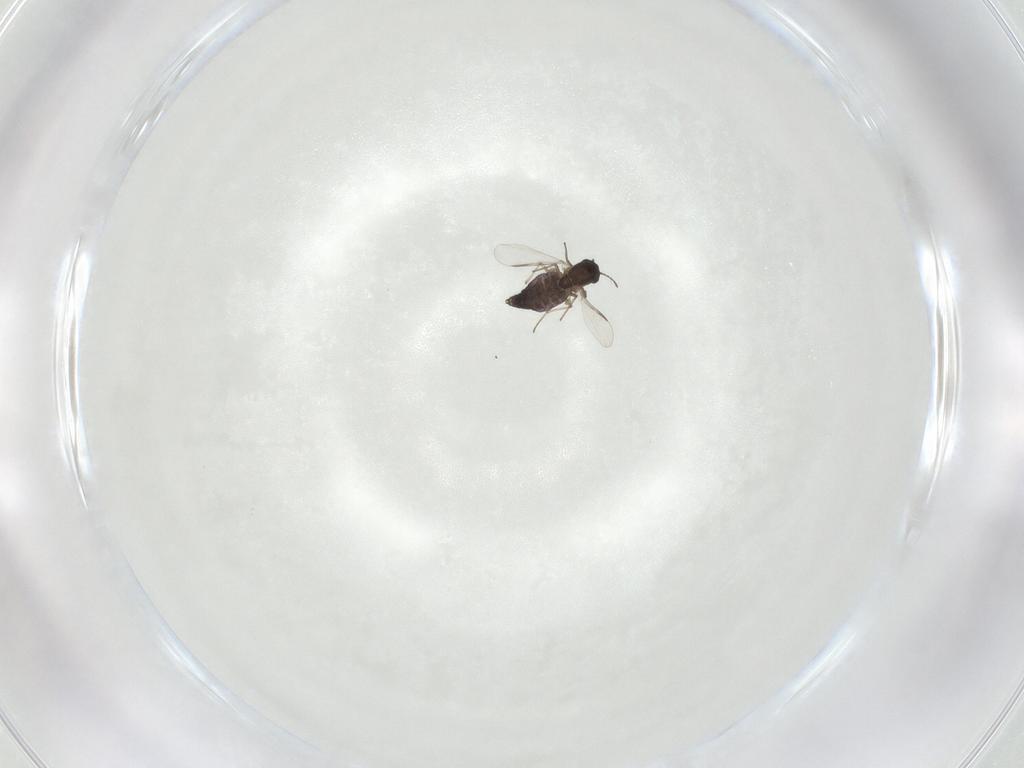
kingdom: Animalia
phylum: Arthropoda
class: Insecta
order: Diptera
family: Chironomidae
